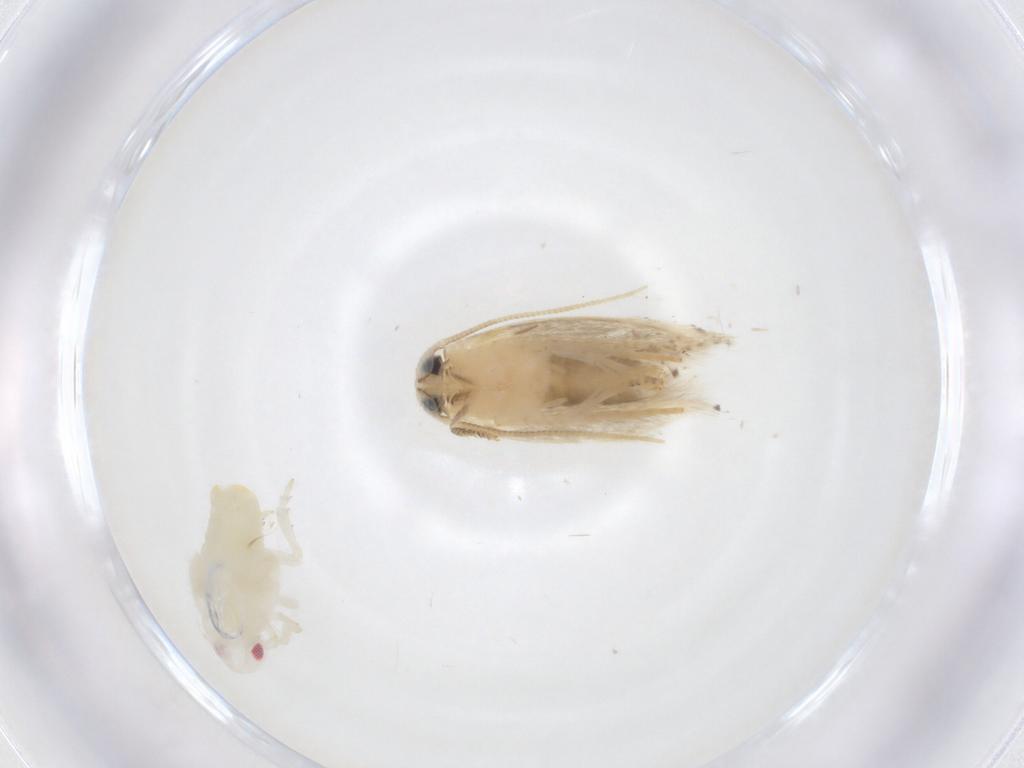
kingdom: Animalia
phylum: Arthropoda
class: Insecta
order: Lepidoptera
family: Opostegidae
